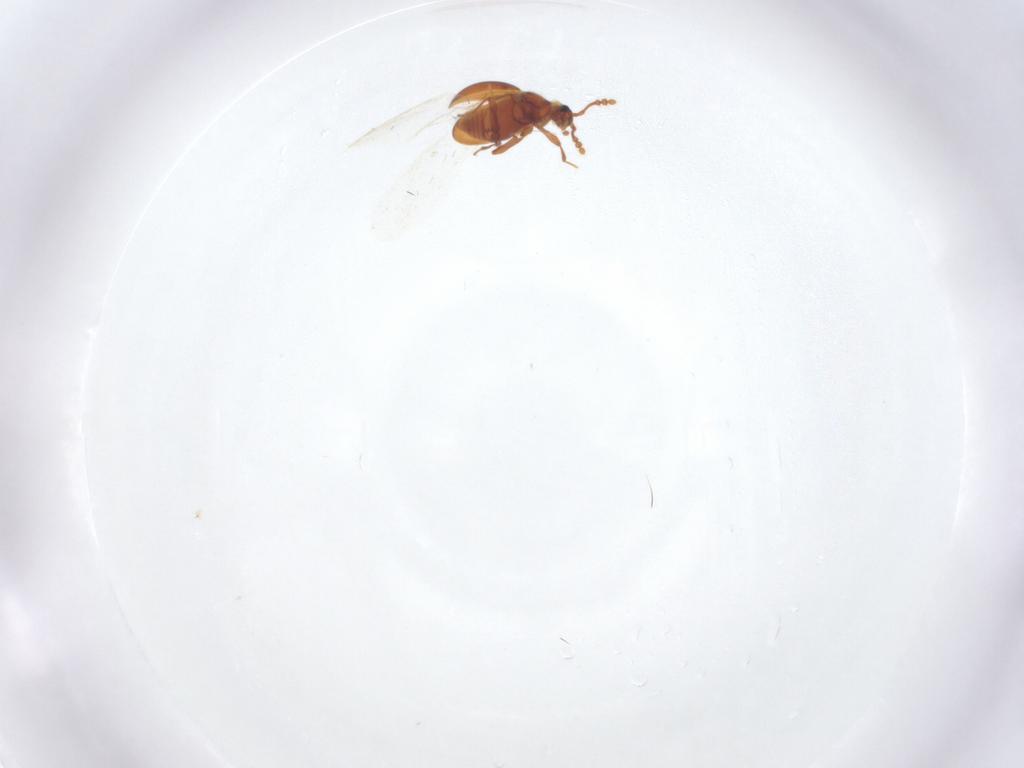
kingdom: Animalia
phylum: Arthropoda
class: Insecta
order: Coleoptera
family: Staphylinidae
